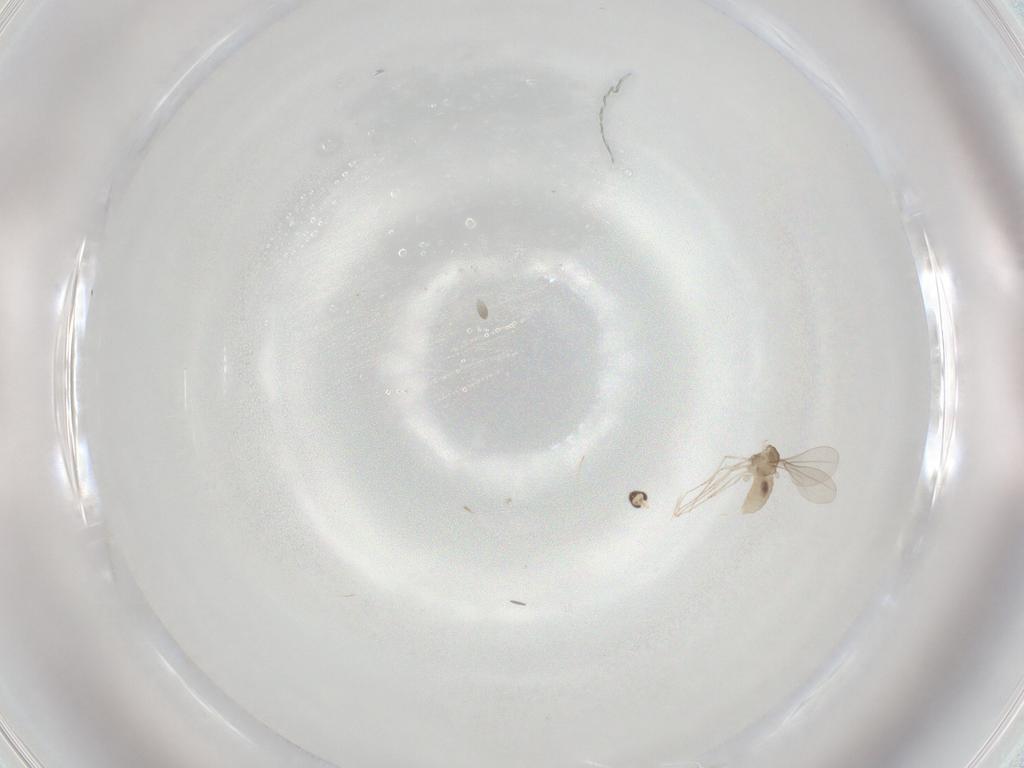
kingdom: Animalia
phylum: Arthropoda
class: Insecta
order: Diptera
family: Cecidomyiidae
